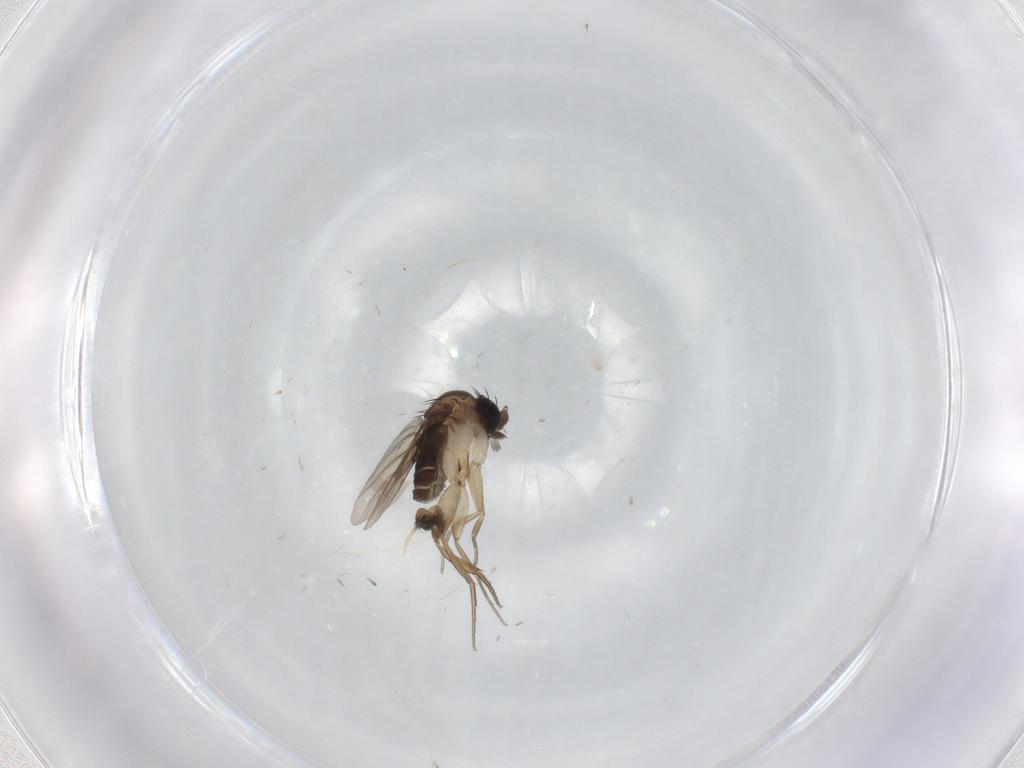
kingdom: Animalia
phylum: Arthropoda
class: Insecta
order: Diptera
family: Phoridae
